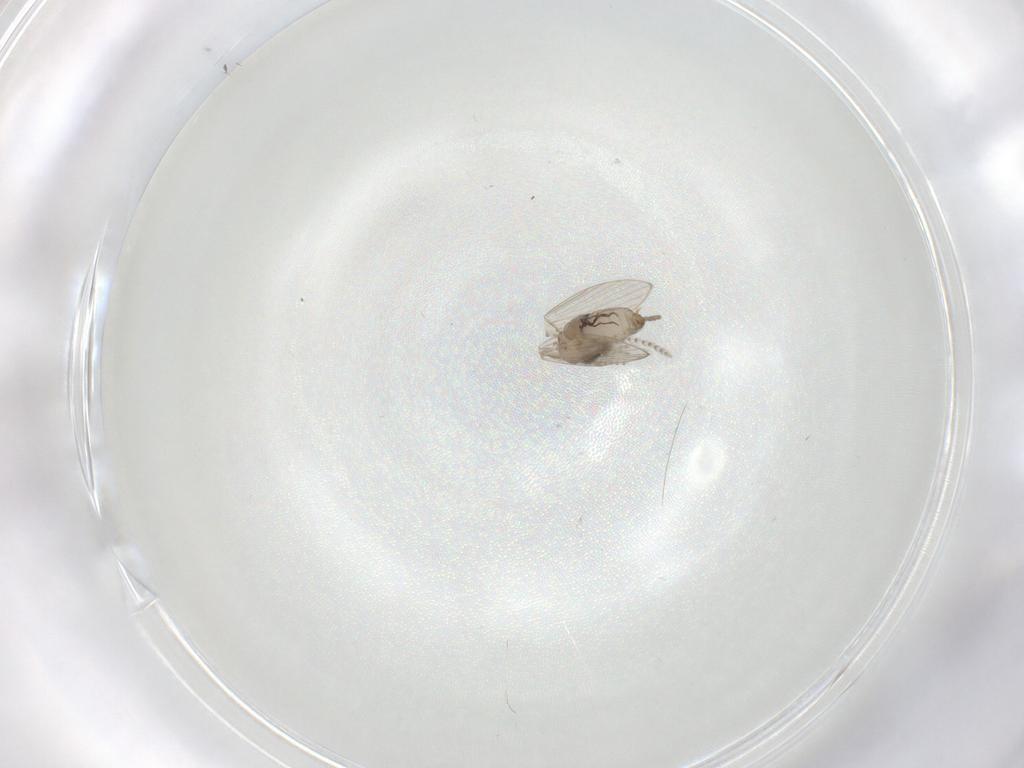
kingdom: Animalia
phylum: Arthropoda
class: Insecta
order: Diptera
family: Psychodidae
